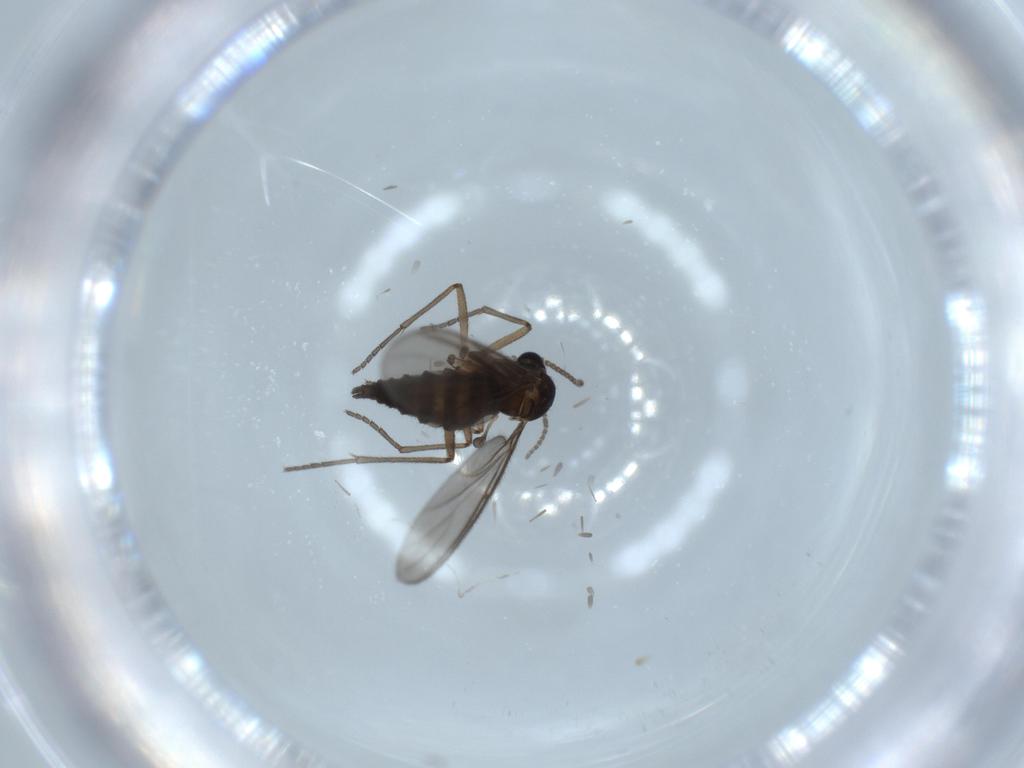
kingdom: Animalia
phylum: Arthropoda
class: Insecta
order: Diptera
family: Sciaridae
